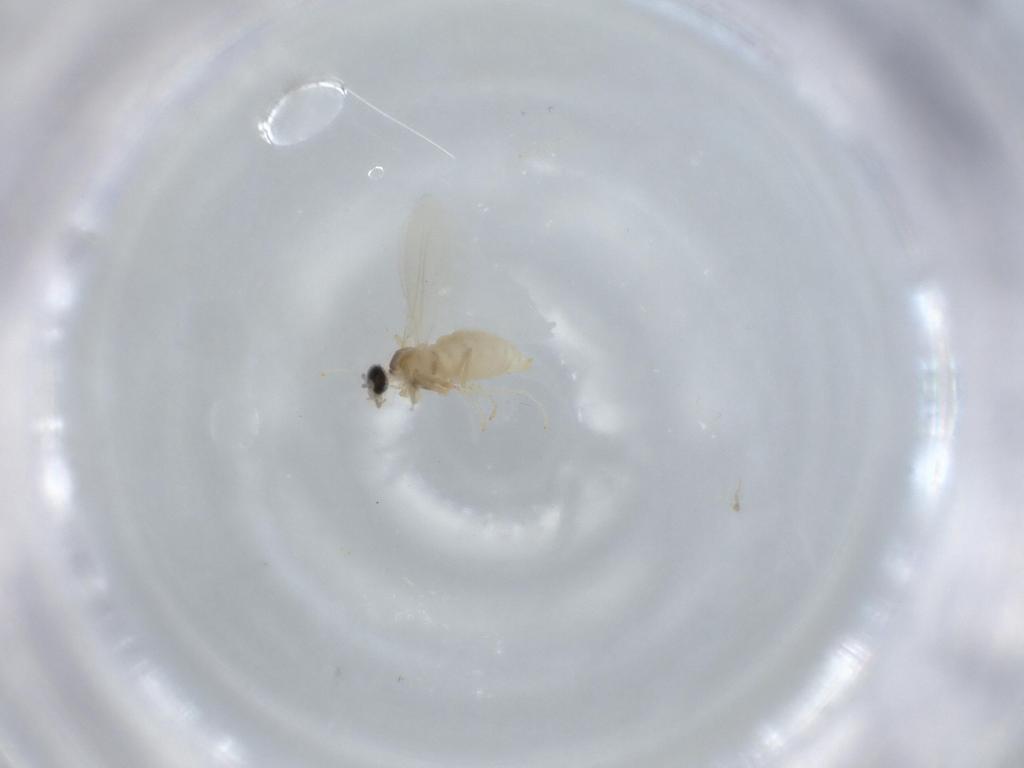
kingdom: Animalia
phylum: Arthropoda
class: Insecta
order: Diptera
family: Cecidomyiidae
